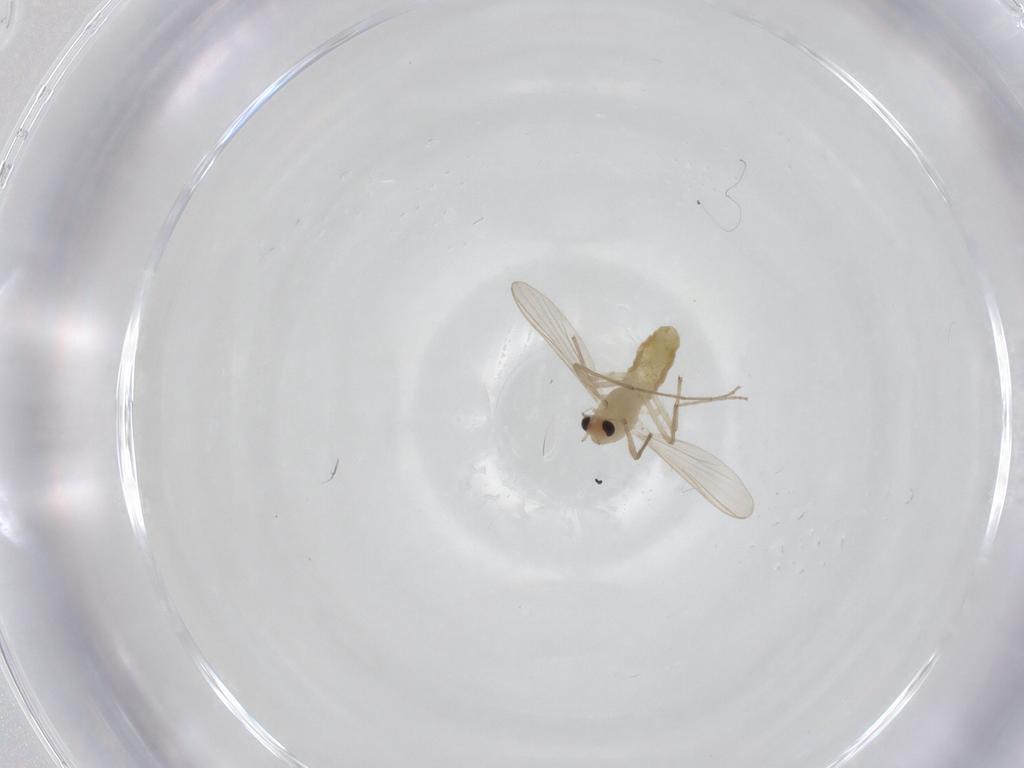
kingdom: Animalia
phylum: Arthropoda
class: Insecta
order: Diptera
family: Chironomidae
